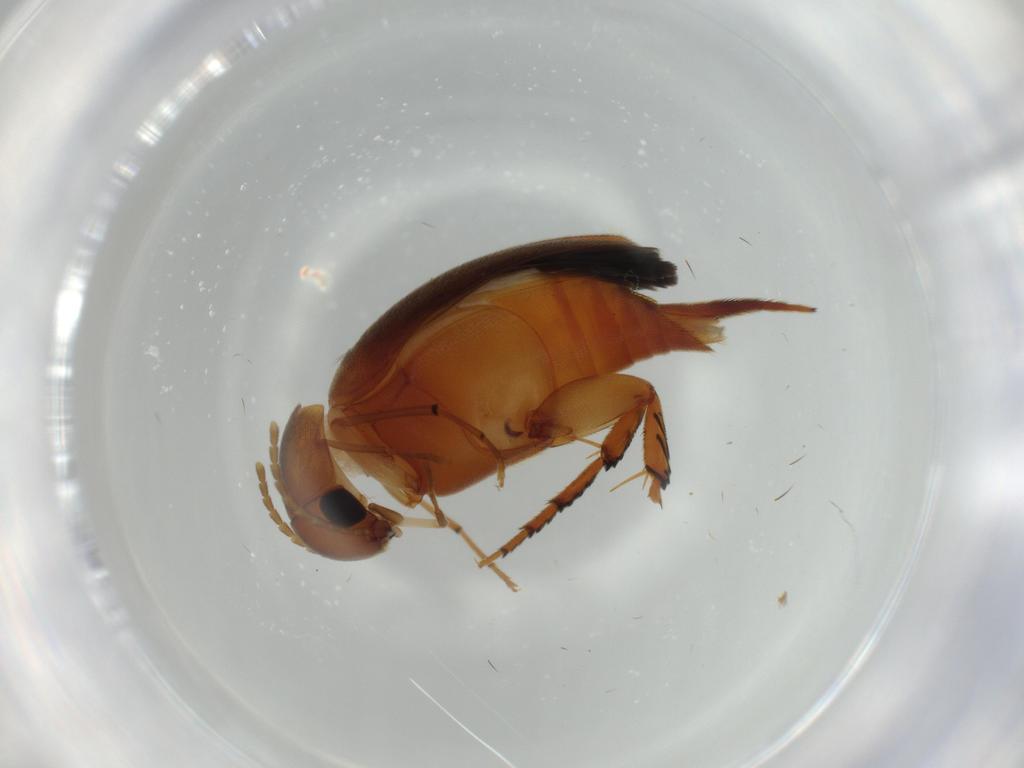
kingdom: Animalia
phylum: Arthropoda
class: Insecta
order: Coleoptera
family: Mordellidae
